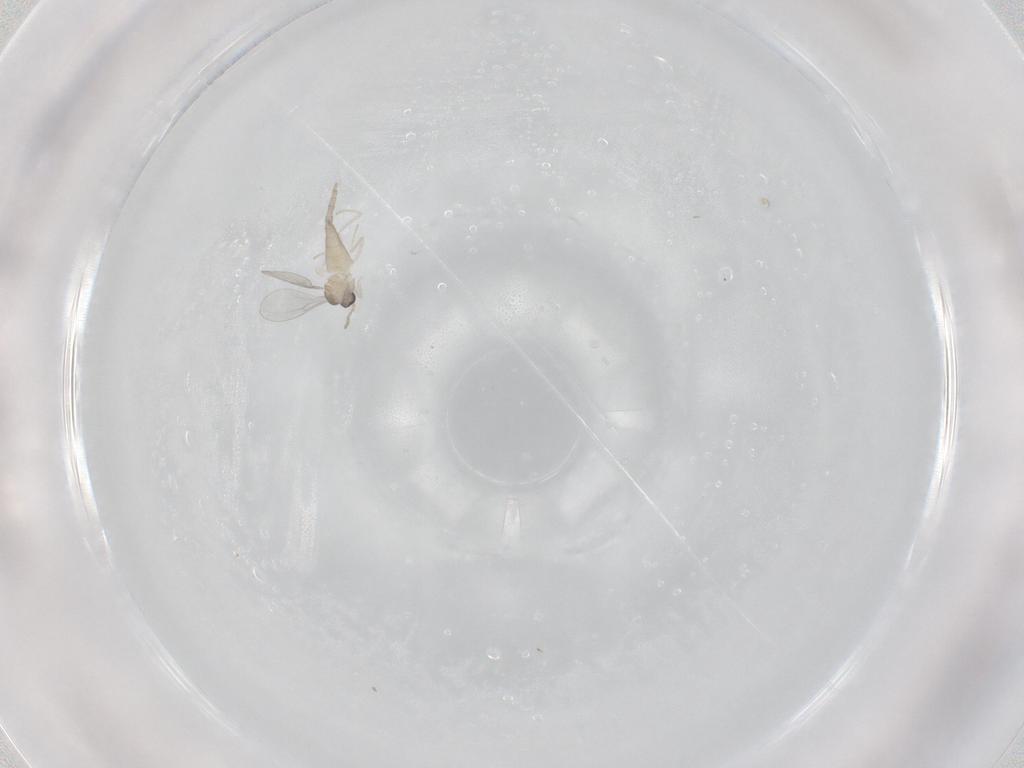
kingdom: Animalia
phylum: Arthropoda
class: Insecta
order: Diptera
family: Cecidomyiidae
